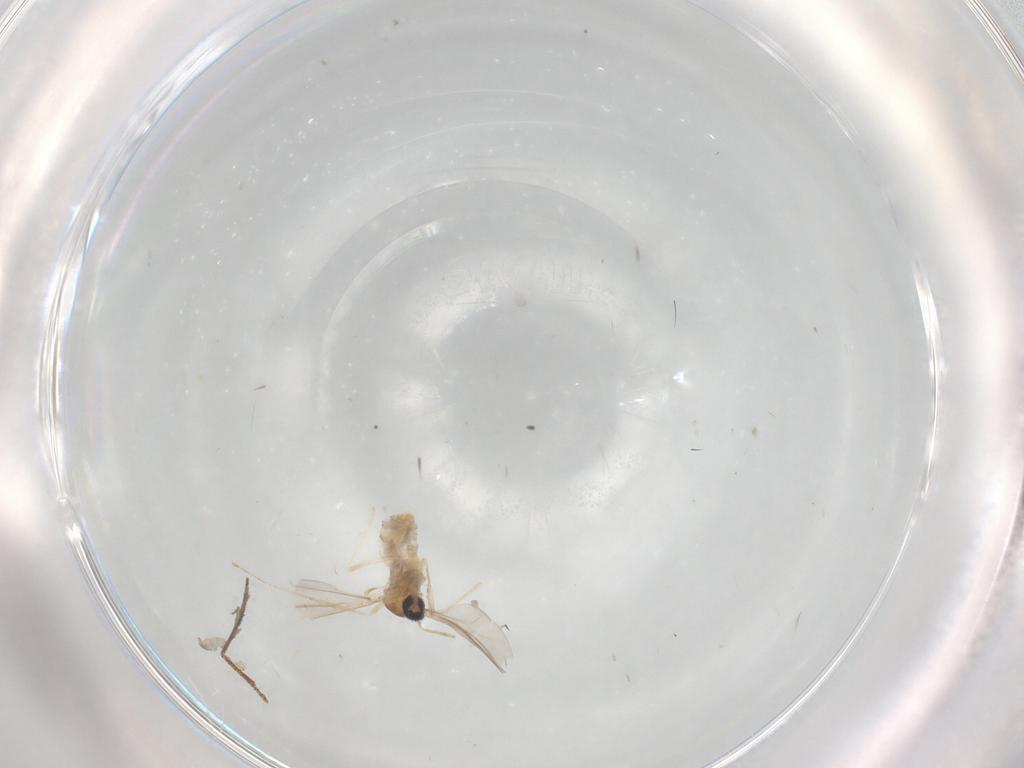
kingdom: Animalia
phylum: Arthropoda
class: Insecta
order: Diptera
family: Cecidomyiidae
